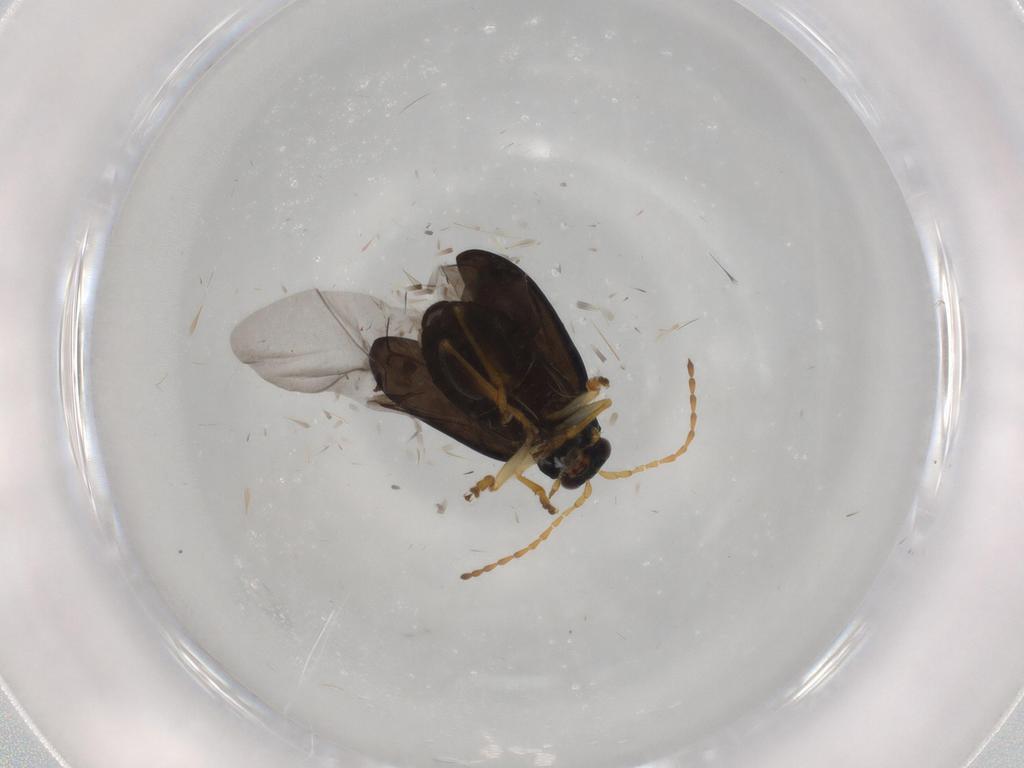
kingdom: Animalia
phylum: Arthropoda
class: Insecta
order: Coleoptera
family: Chrysomelidae
